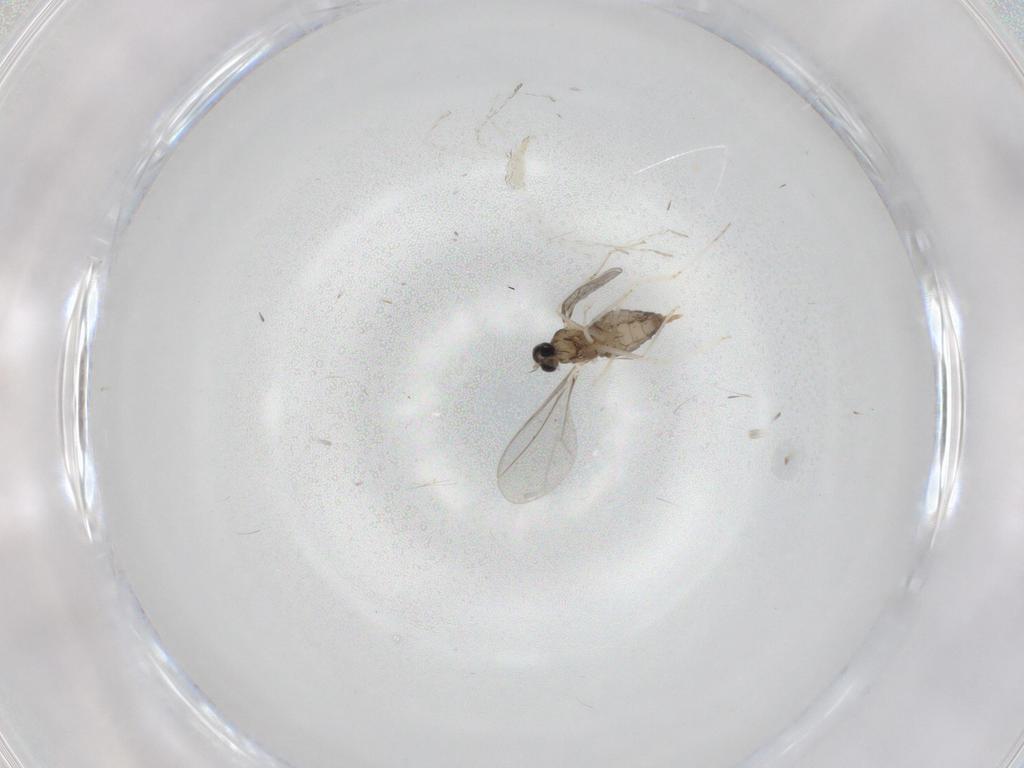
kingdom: Animalia
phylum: Arthropoda
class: Insecta
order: Diptera
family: Cecidomyiidae
